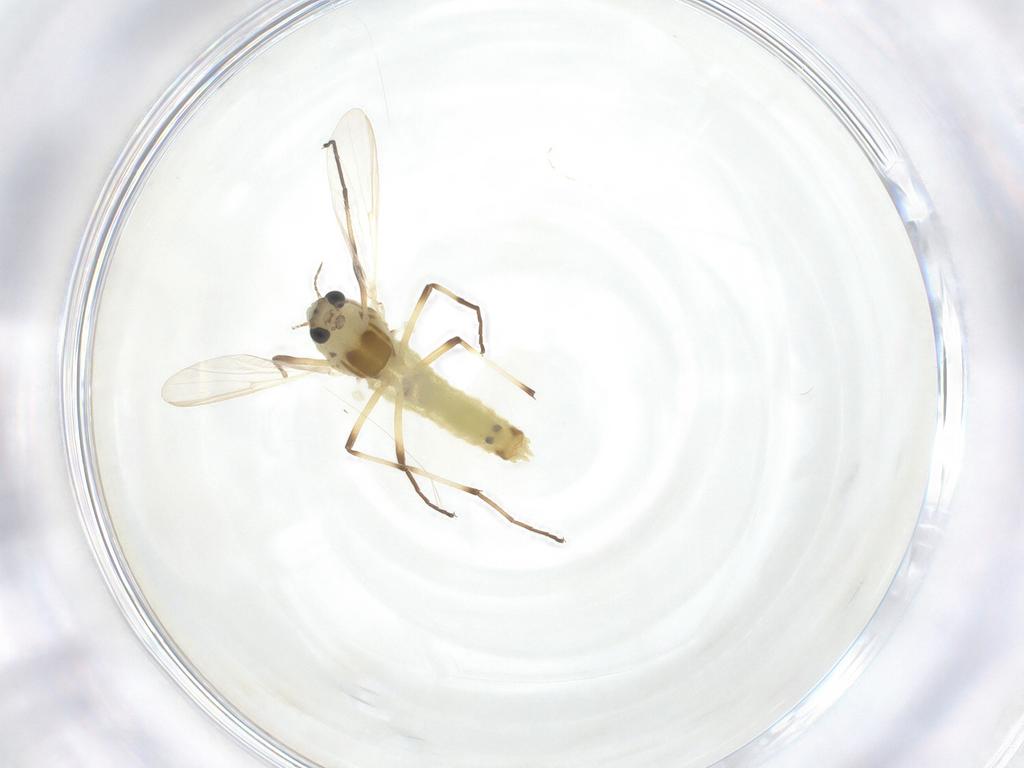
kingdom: Animalia
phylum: Arthropoda
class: Insecta
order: Diptera
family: Chironomidae
